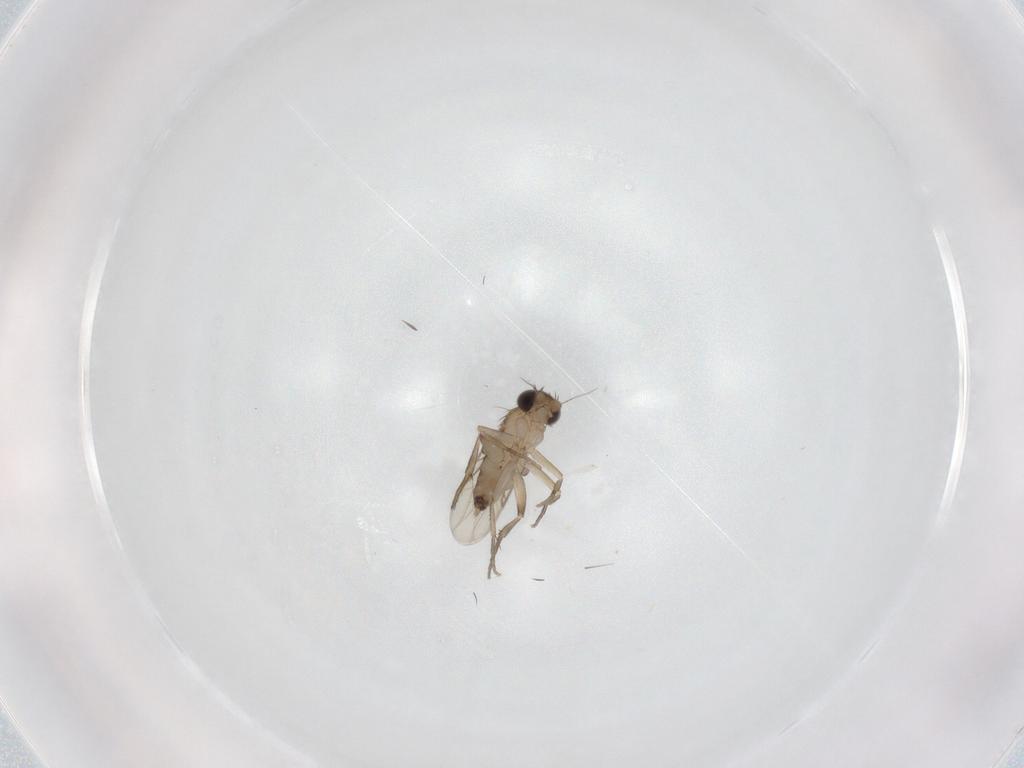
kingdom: Animalia
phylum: Arthropoda
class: Insecta
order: Diptera
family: Phoridae
